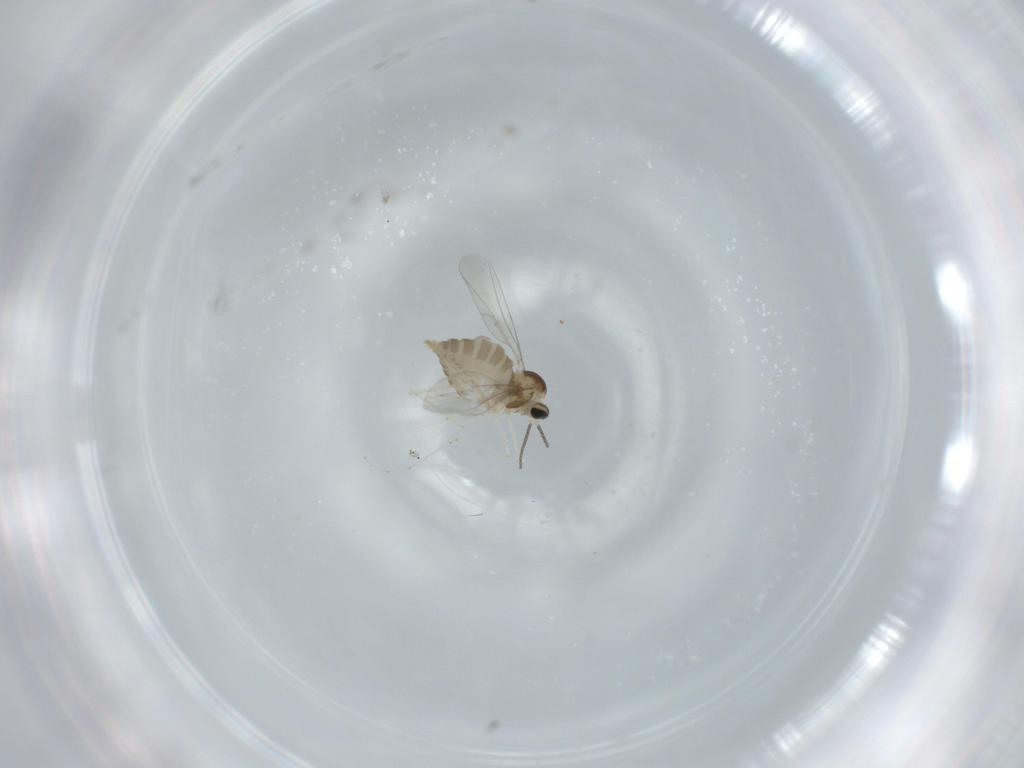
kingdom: Animalia
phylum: Arthropoda
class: Insecta
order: Diptera
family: Cecidomyiidae
